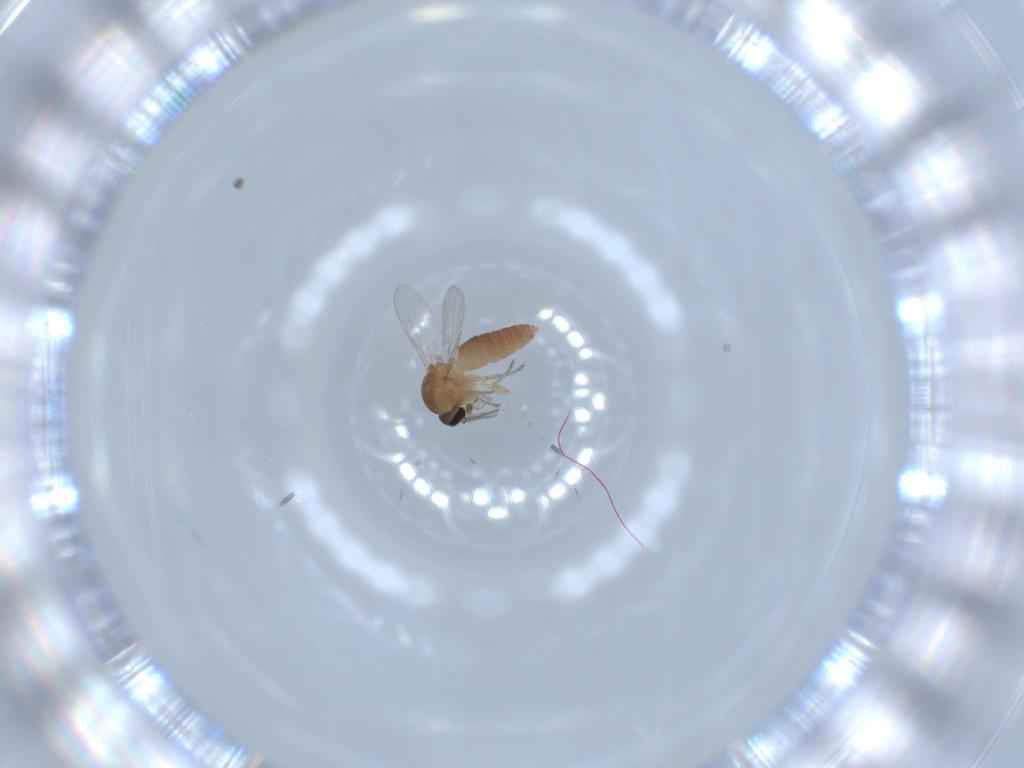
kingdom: Animalia
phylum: Arthropoda
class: Insecta
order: Diptera
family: Ceratopogonidae
